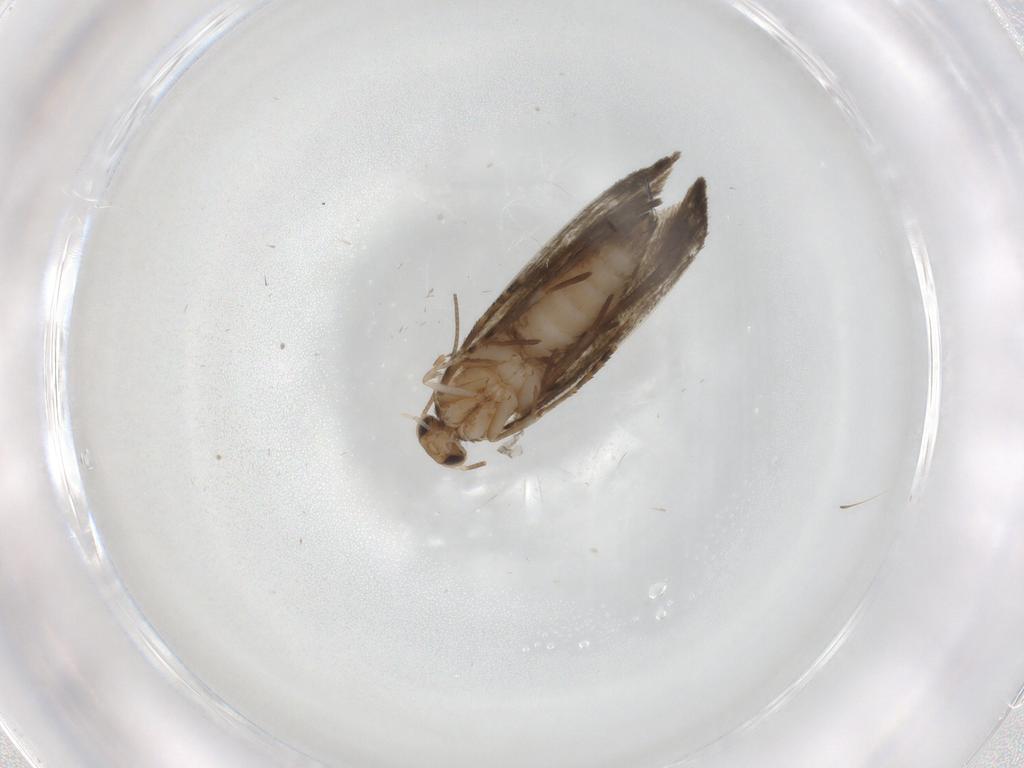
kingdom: Animalia
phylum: Arthropoda
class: Insecta
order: Lepidoptera
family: Crambidae
